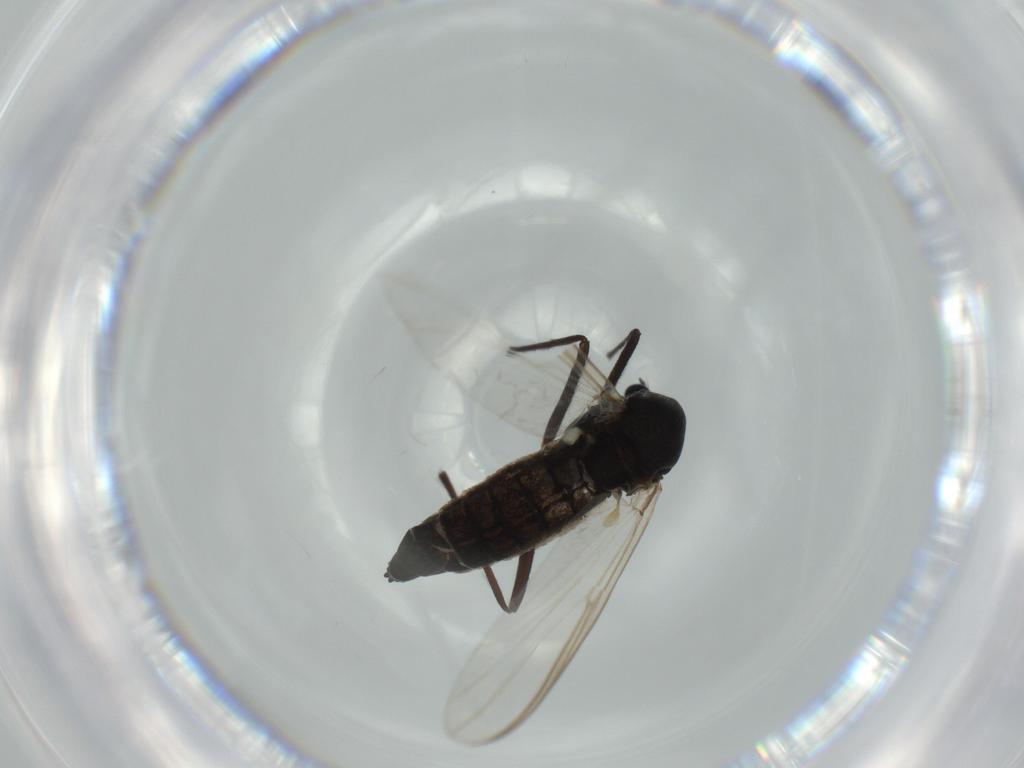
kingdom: Animalia
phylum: Arthropoda
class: Insecta
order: Diptera
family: Chironomidae
